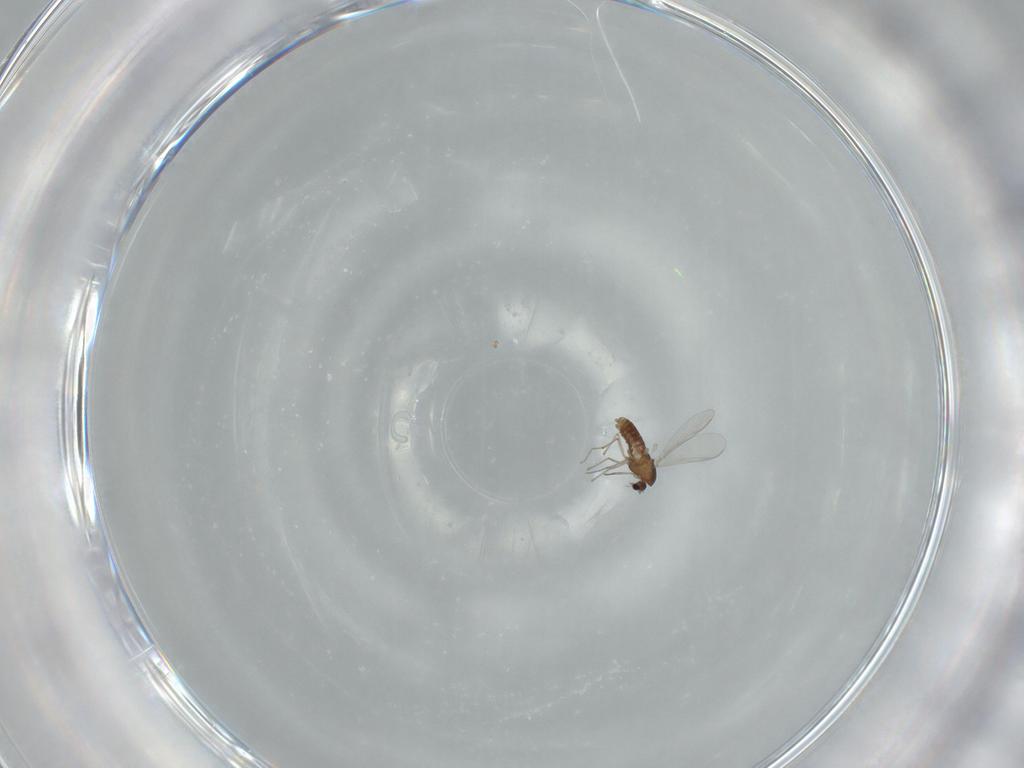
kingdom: Animalia
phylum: Arthropoda
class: Insecta
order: Diptera
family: Chironomidae
